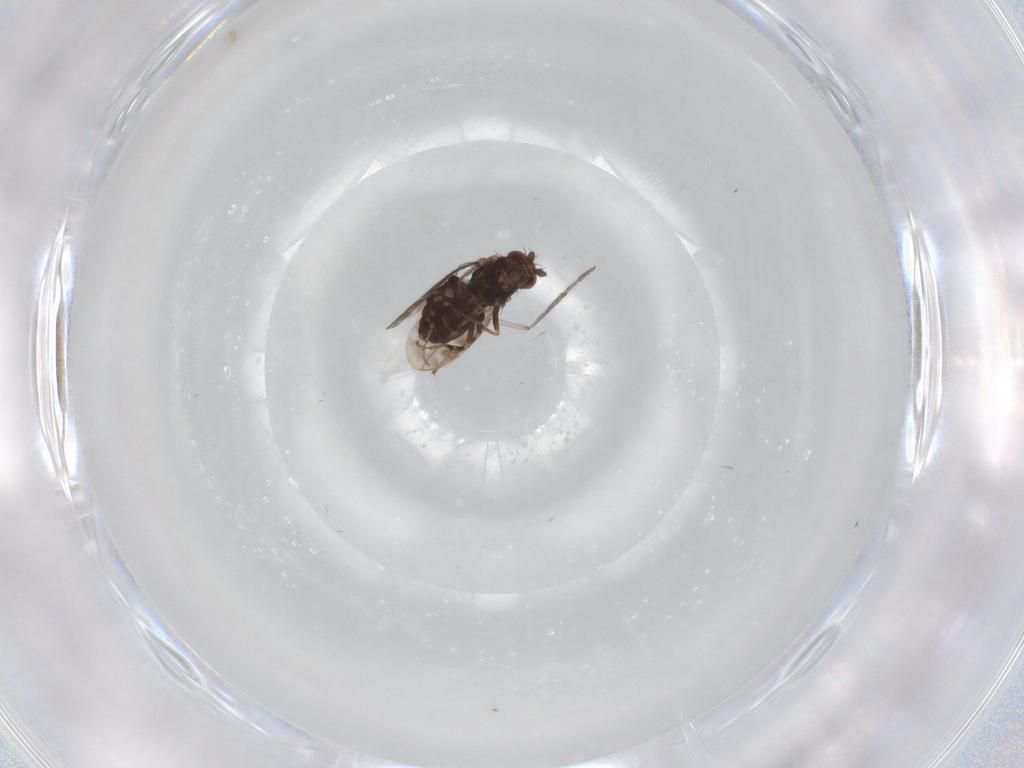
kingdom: Animalia
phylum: Arthropoda
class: Insecta
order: Diptera
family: Sphaeroceridae
